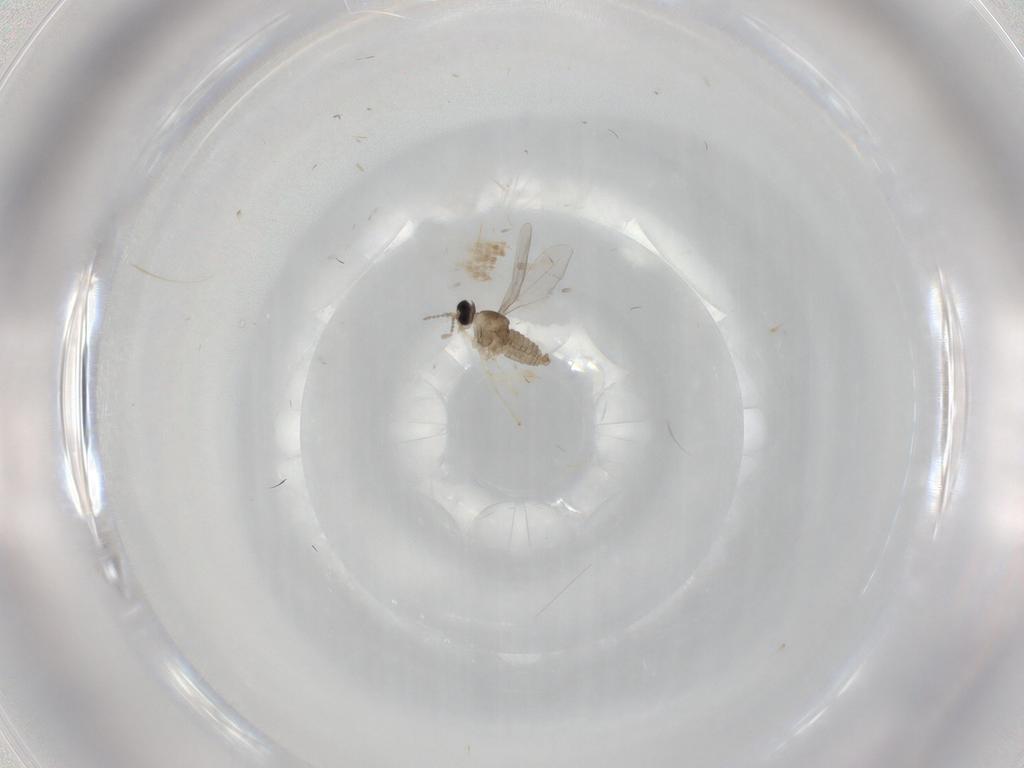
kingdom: Animalia
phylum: Arthropoda
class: Insecta
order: Diptera
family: Cecidomyiidae
